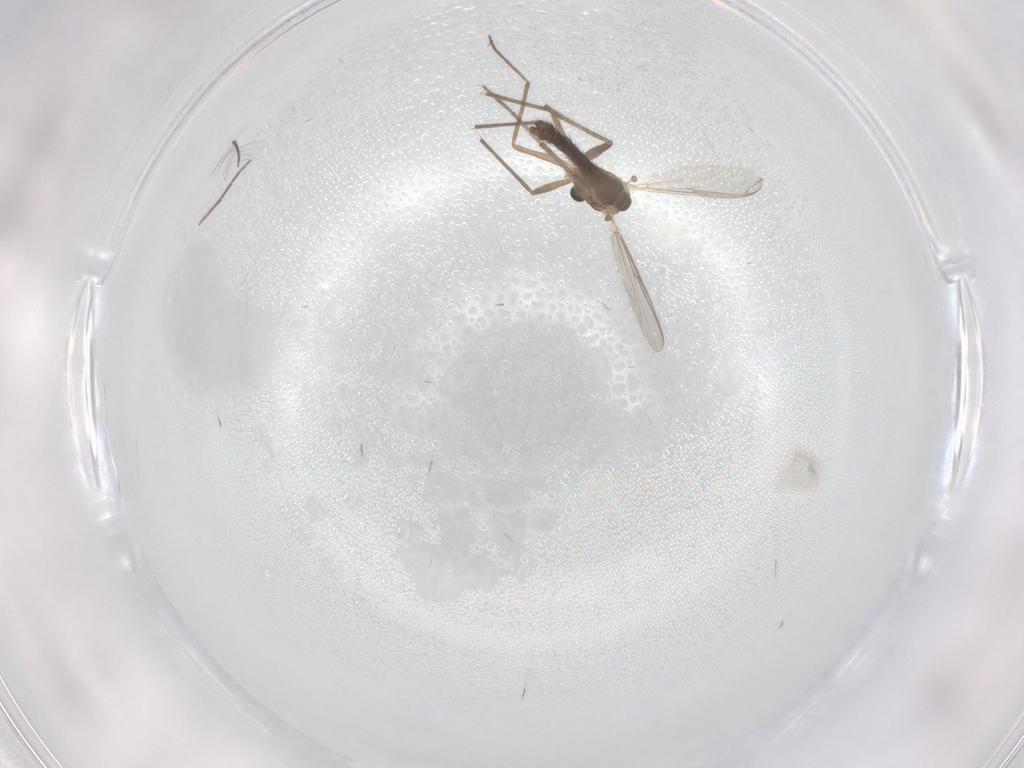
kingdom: Animalia
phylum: Arthropoda
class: Insecta
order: Diptera
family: Chironomidae
